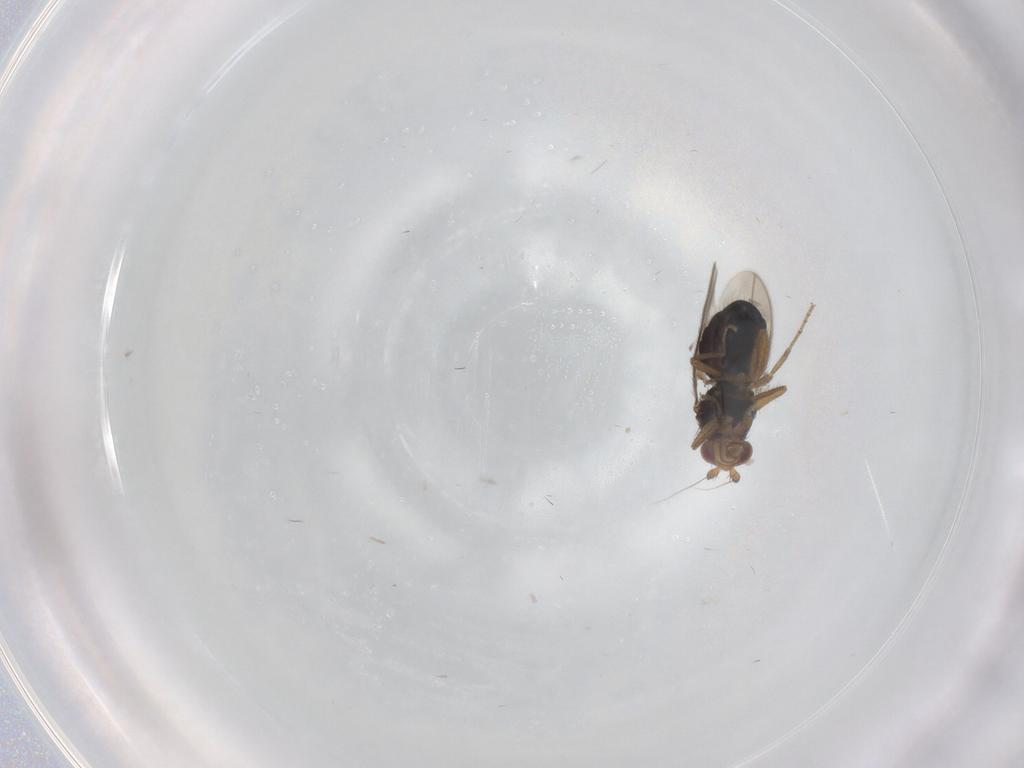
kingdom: Animalia
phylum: Arthropoda
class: Insecta
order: Diptera
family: Sphaeroceridae
